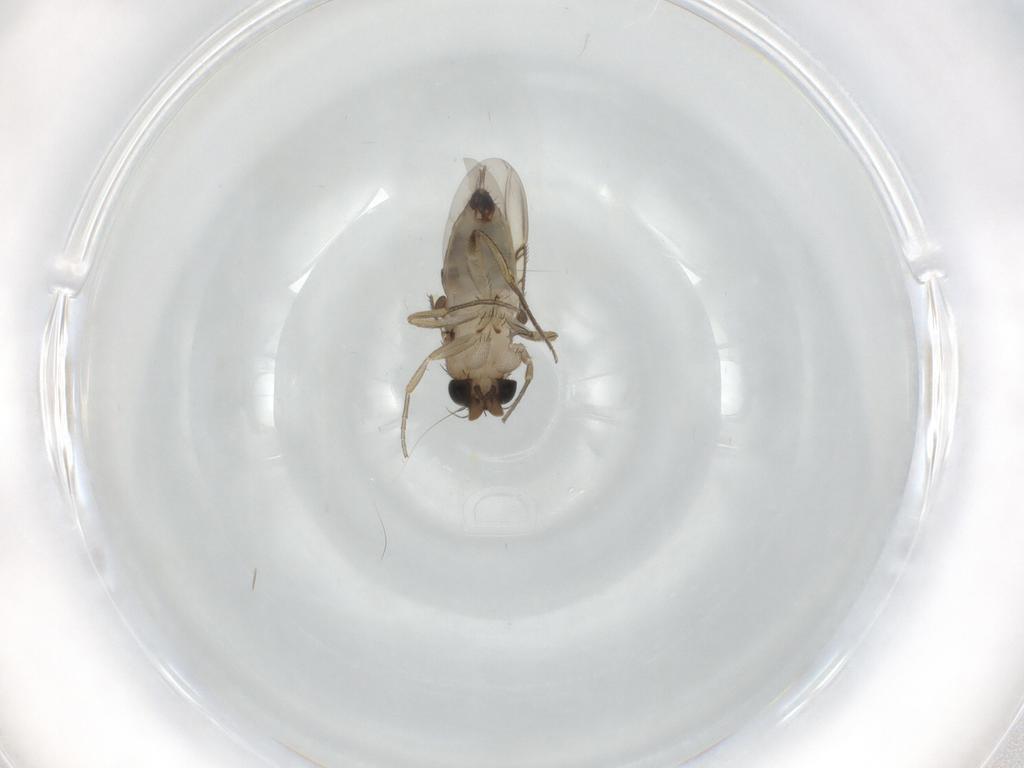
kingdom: Animalia
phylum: Arthropoda
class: Insecta
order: Diptera
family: Phoridae
